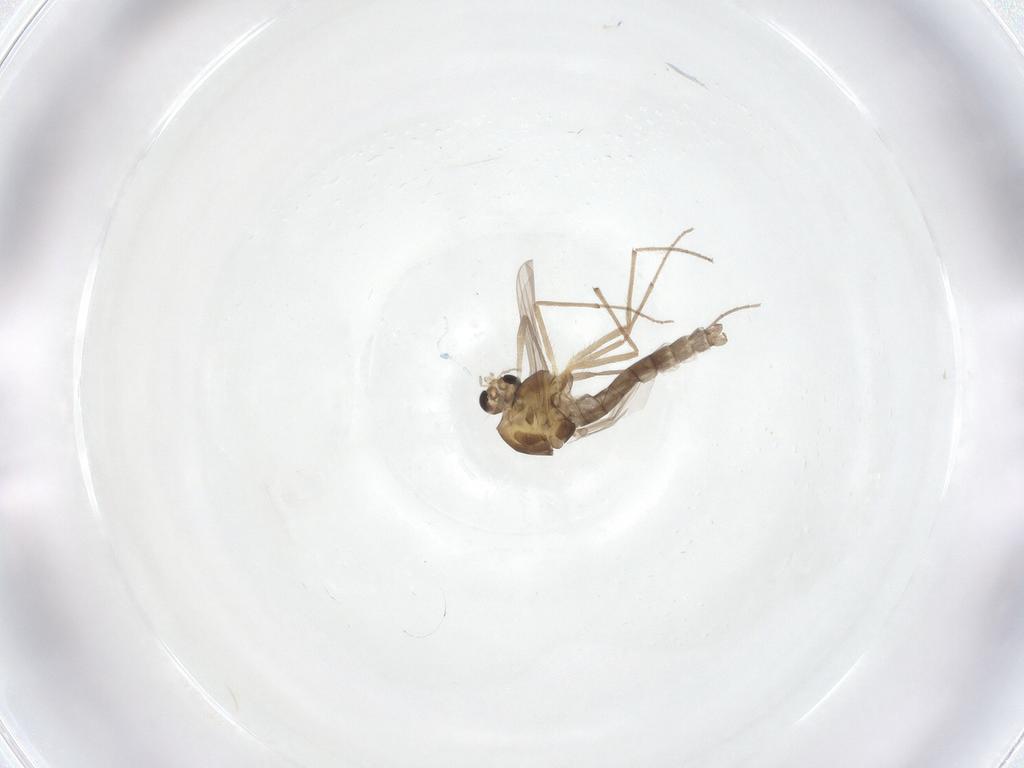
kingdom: Animalia
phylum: Arthropoda
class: Insecta
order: Diptera
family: Chironomidae
